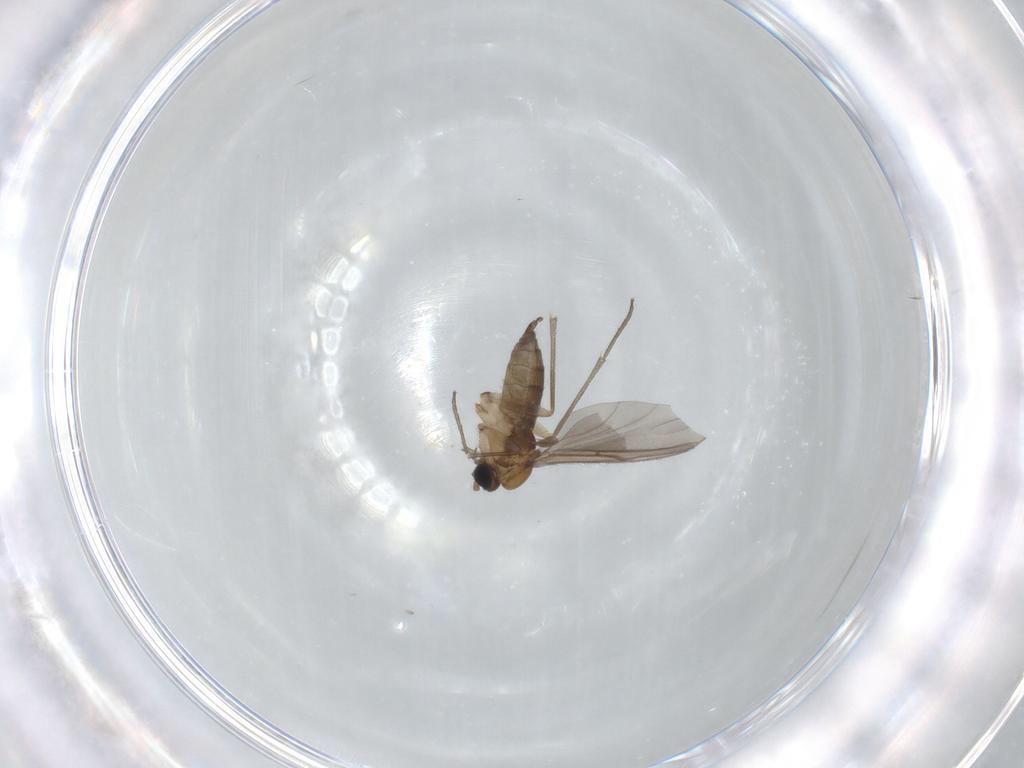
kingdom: Animalia
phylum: Arthropoda
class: Insecta
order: Diptera
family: Sciaridae
